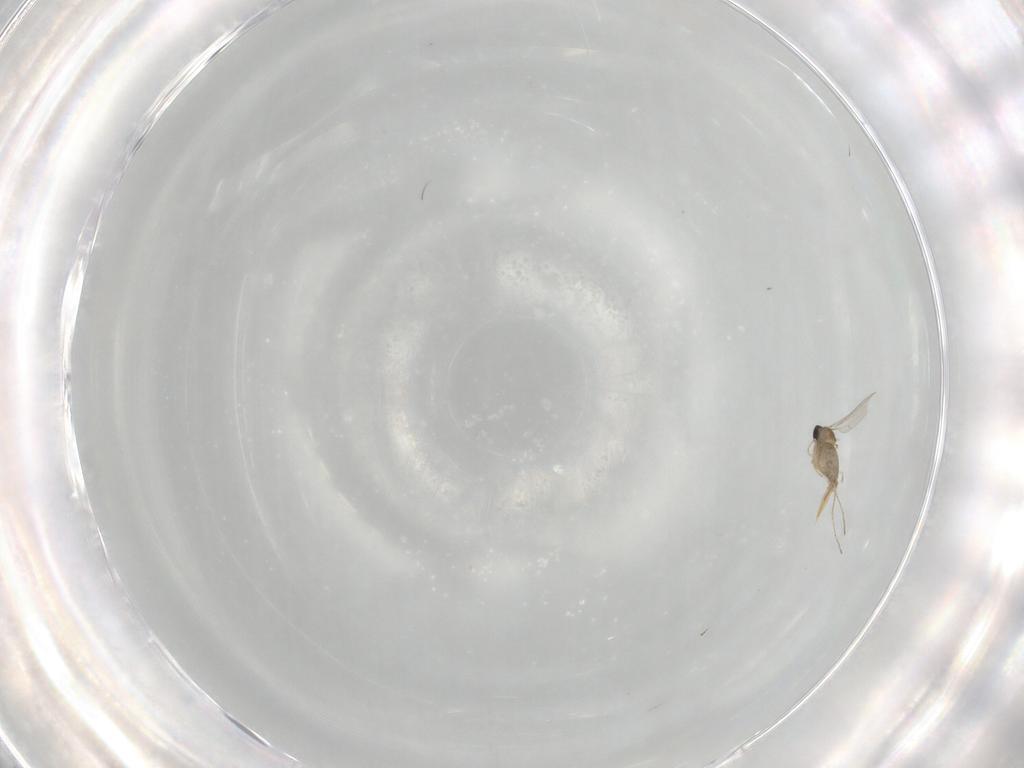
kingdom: Animalia
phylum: Arthropoda
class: Insecta
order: Diptera
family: Cecidomyiidae
